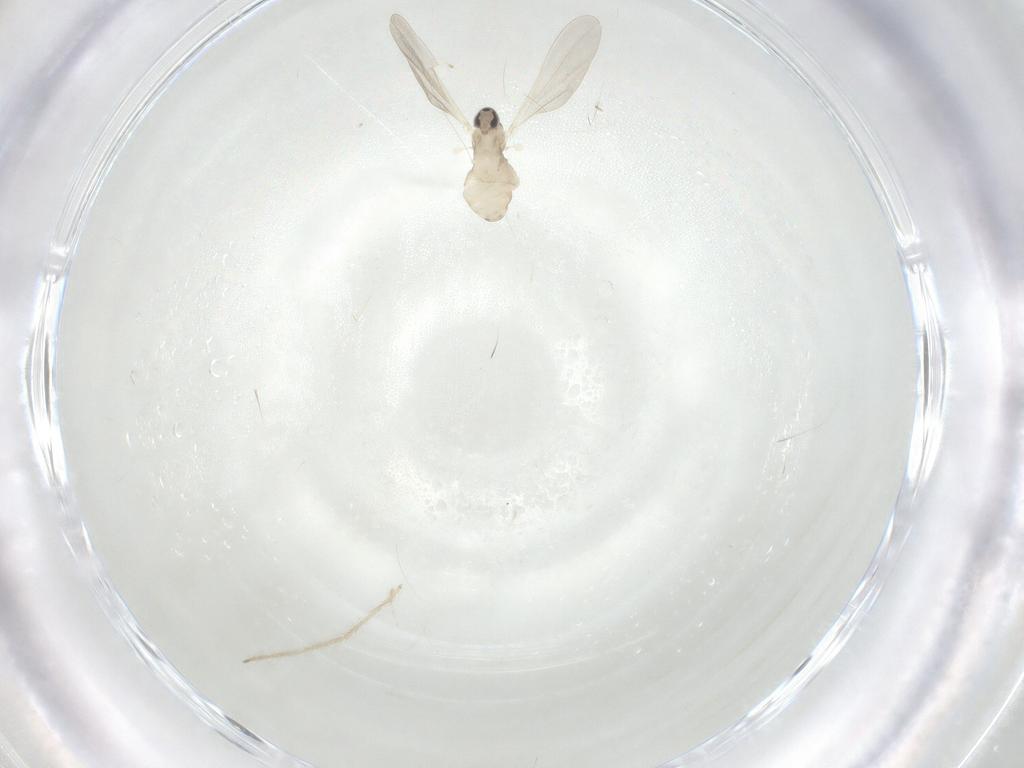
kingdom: Animalia
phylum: Arthropoda
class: Insecta
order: Diptera
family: Cecidomyiidae
